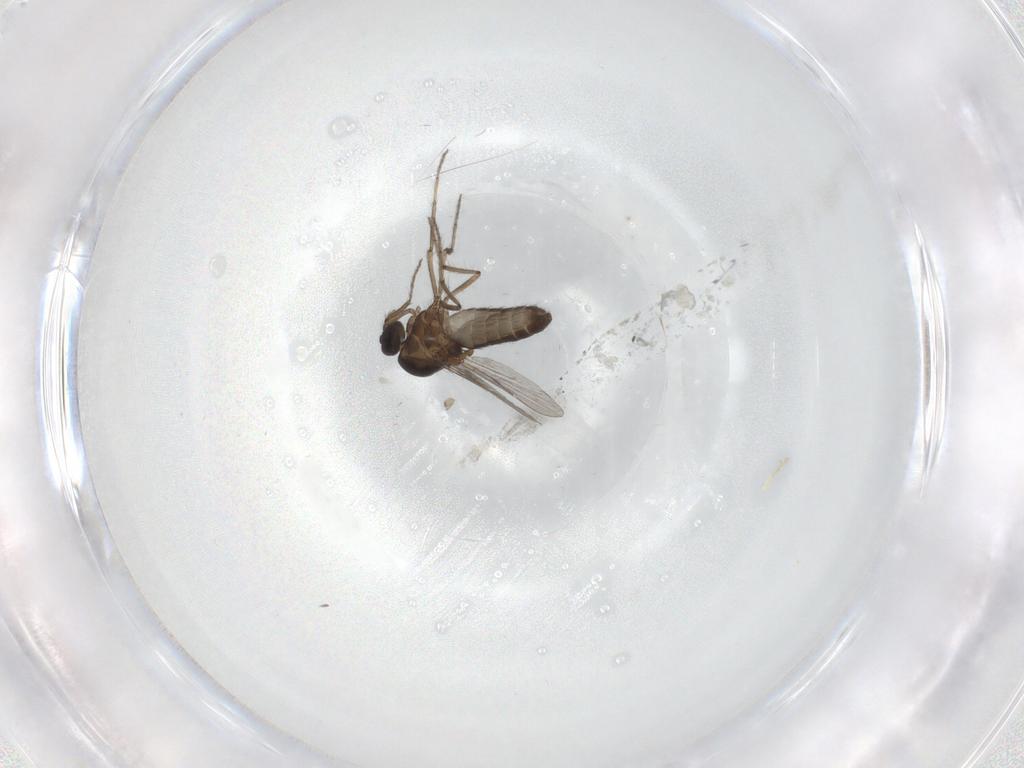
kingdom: Animalia
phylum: Arthropoda
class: Insecta
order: Diptera
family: Ceratopogonidae
